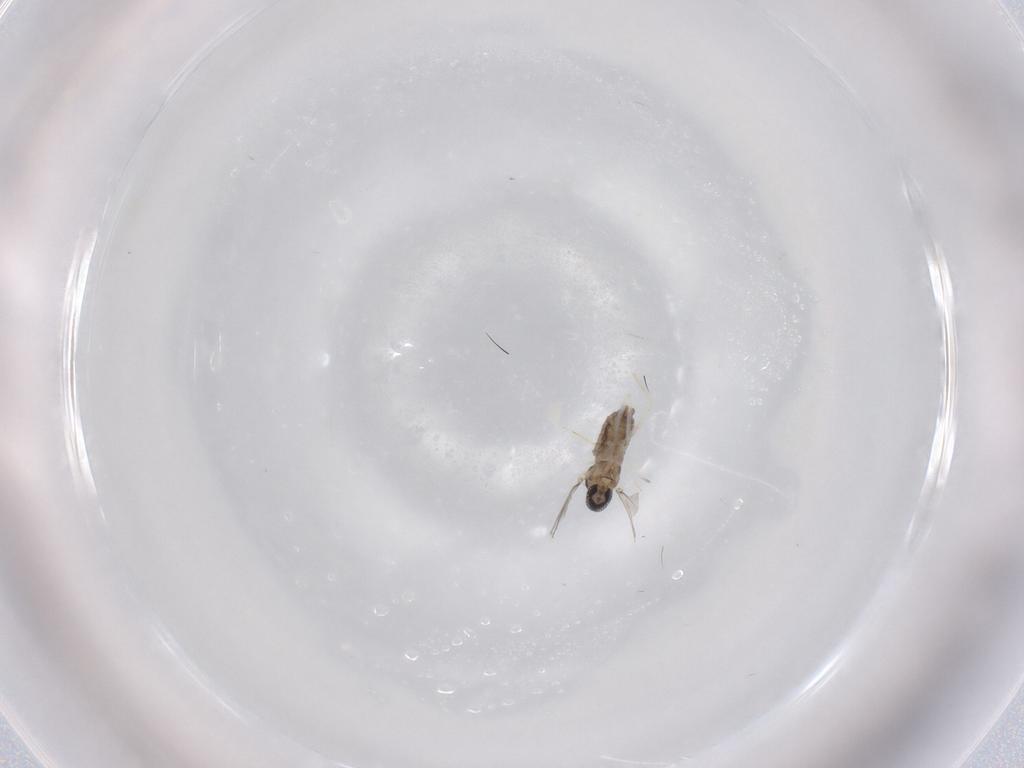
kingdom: Animalia
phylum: Arthropoda
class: Insecta
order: Diptera
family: Cecidomyiidae
